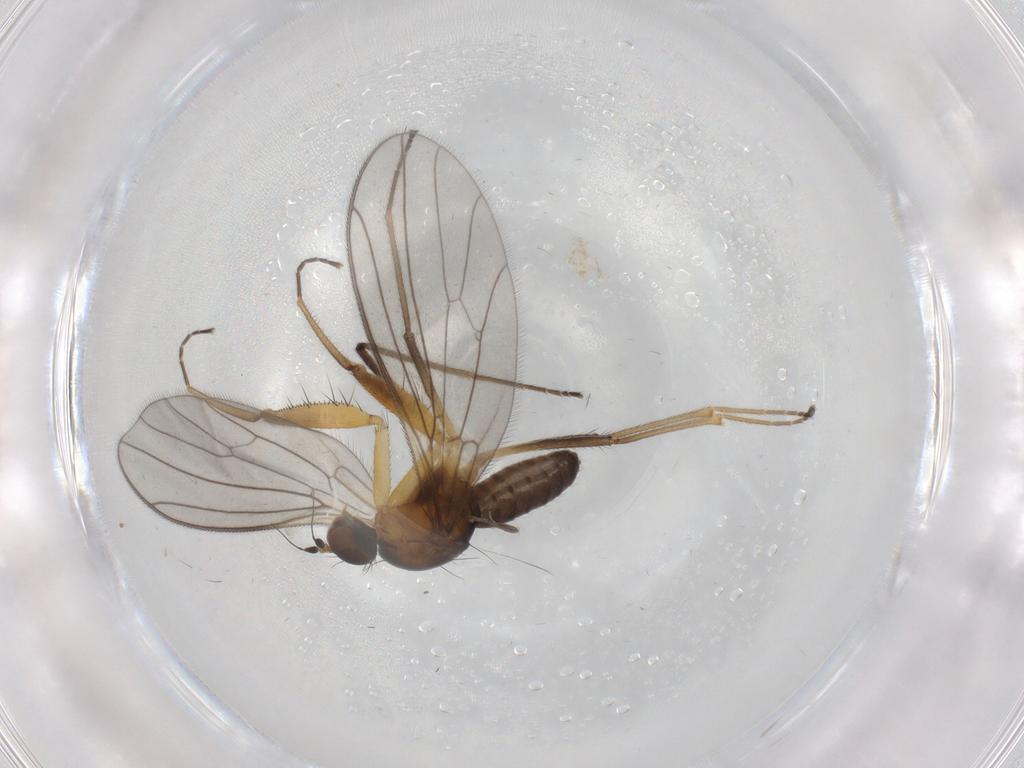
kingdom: Animalia
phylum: Arthropoda
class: Insecta
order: Diptera
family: Empididae
